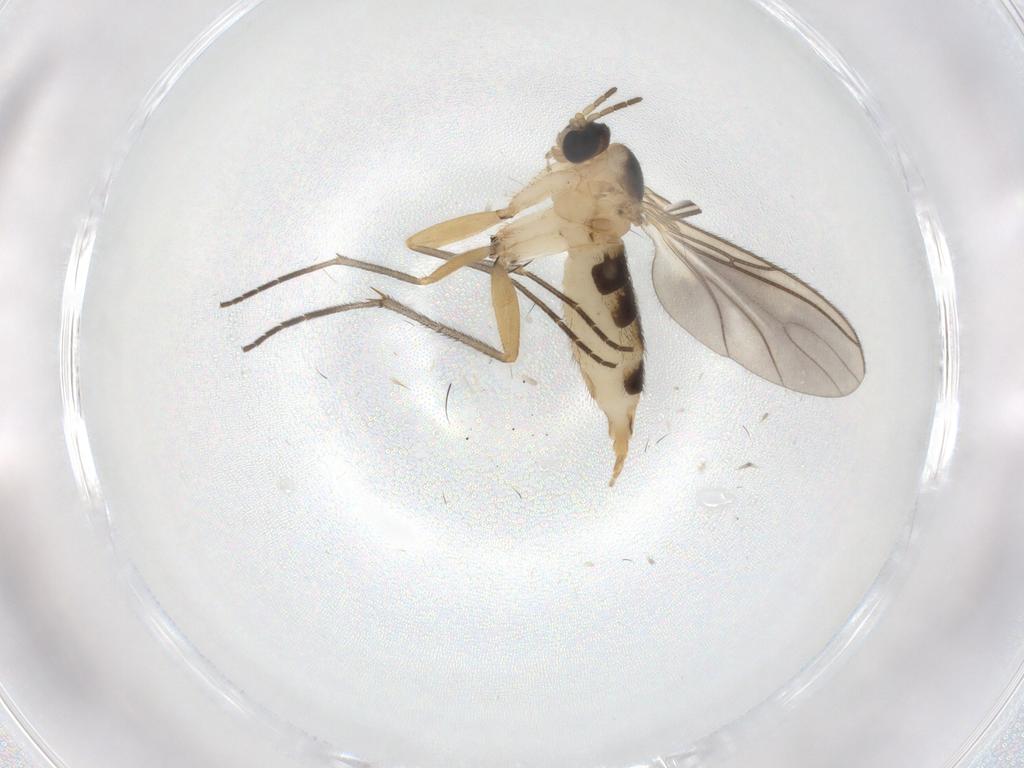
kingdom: Animalia
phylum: Arthropoda
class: Insecta
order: Diptera
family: Sciaridae
